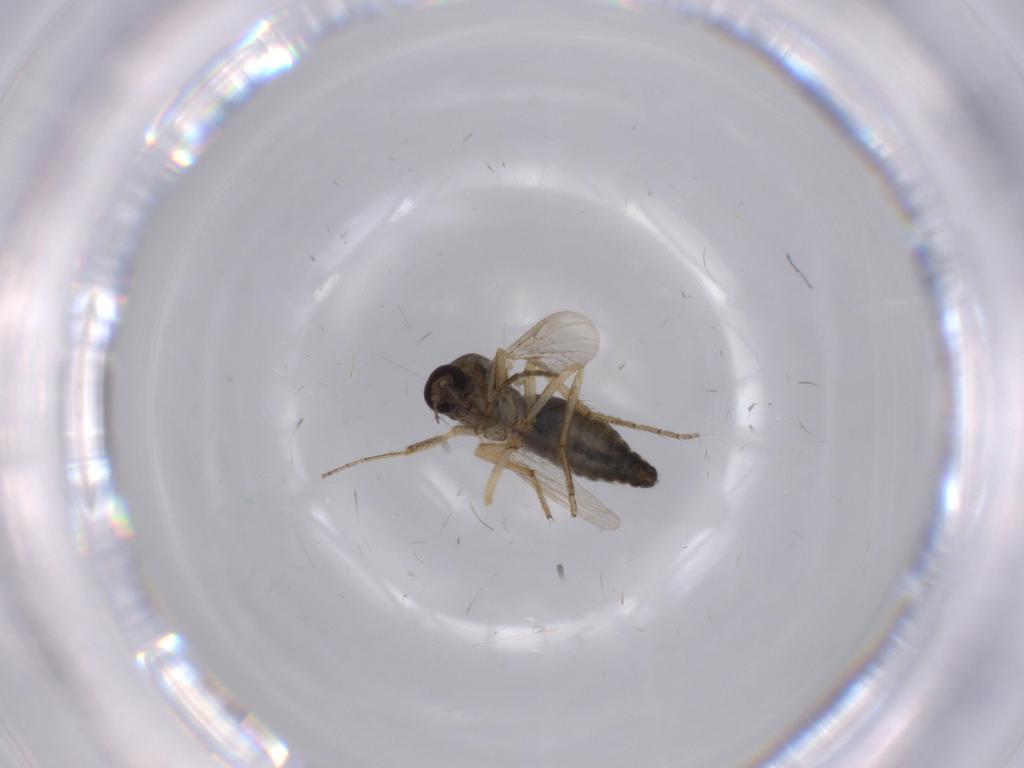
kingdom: Animalia
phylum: Arthropoda
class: Insecta
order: Diptera
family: Ceratopogonidae
